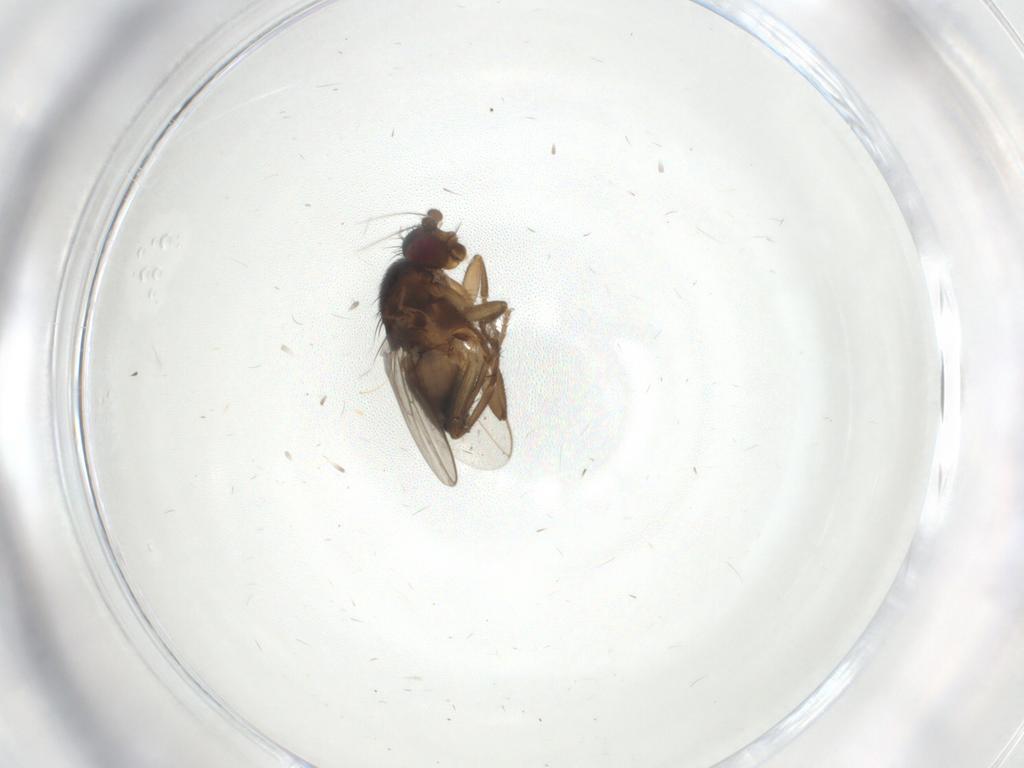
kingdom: Animalia
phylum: Arthropoda
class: Insecta
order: Diptera
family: Sphaeroceridae
